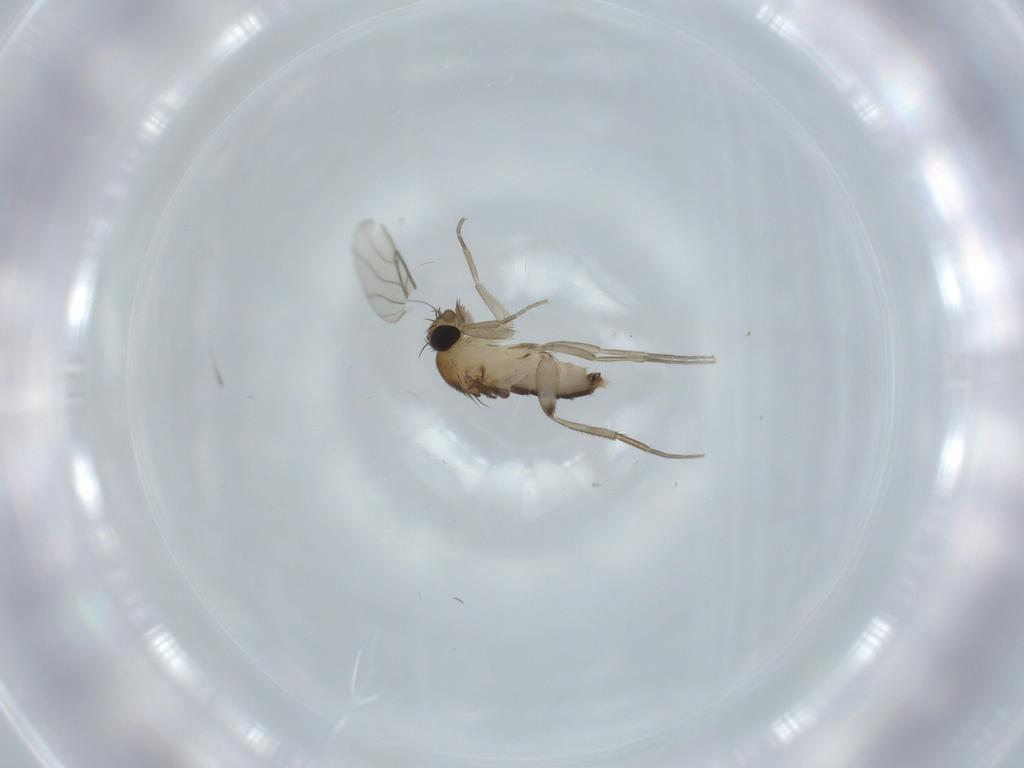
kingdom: Animalia
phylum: Arthropoda
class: Insecta
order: Diptera
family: Phoridae
